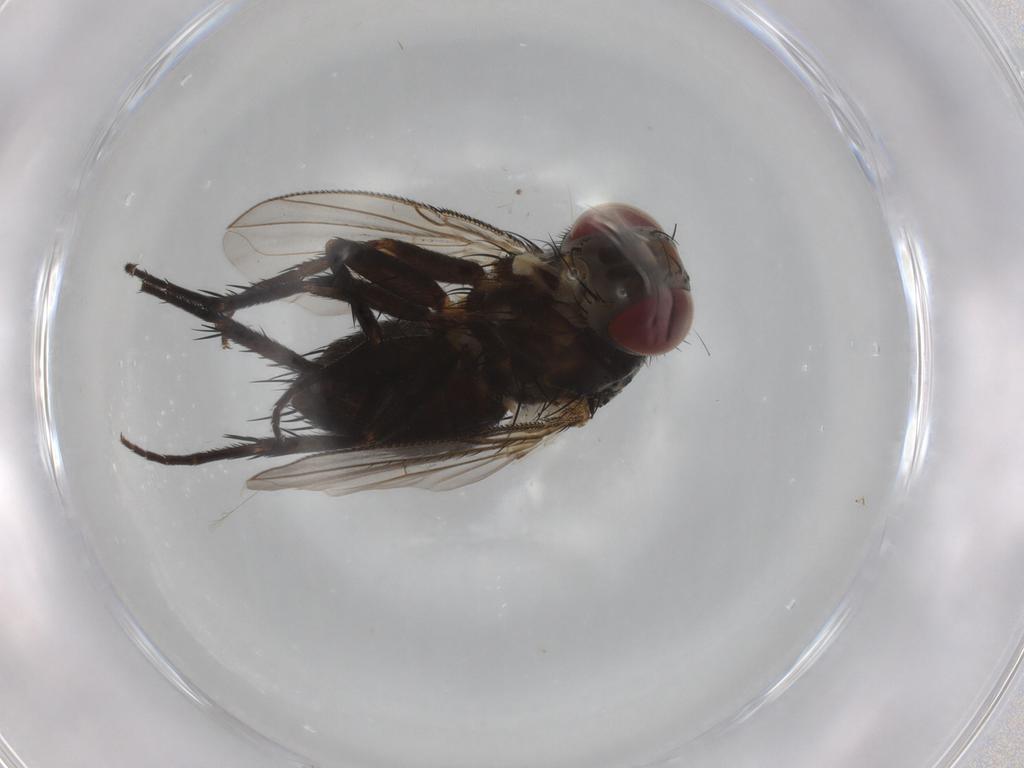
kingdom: Animalia
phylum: Arthropoda
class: Insecta
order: Diptera
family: Tachinidae
